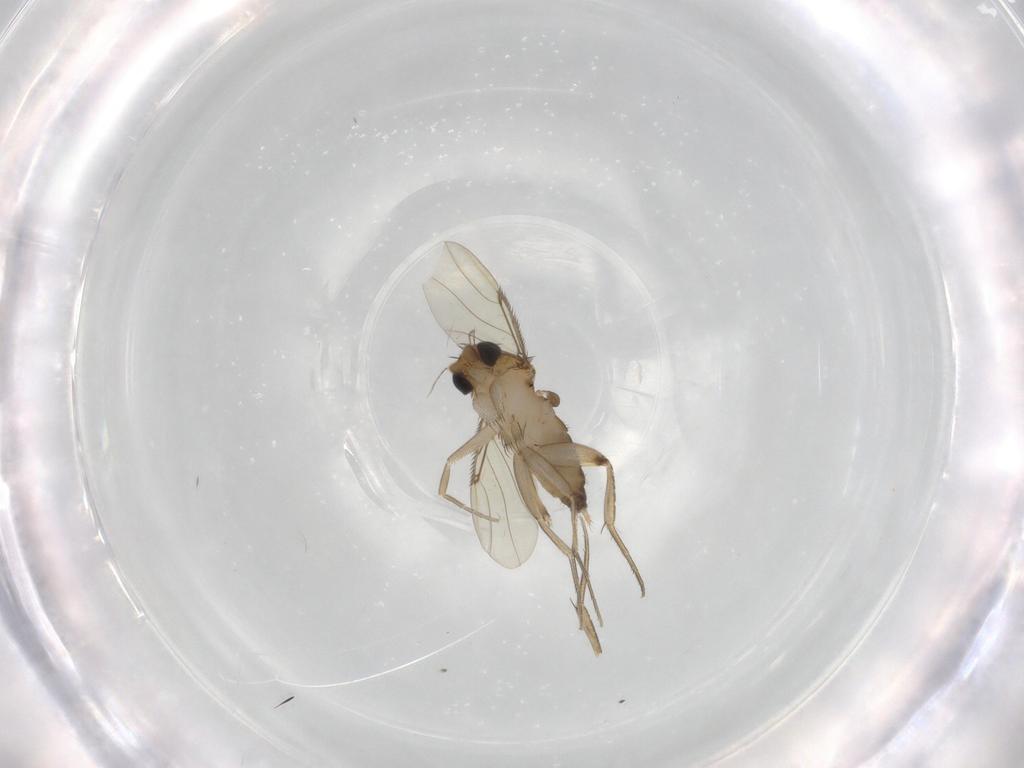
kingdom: Animalia
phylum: Arthropoda
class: Insecta
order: Diptera
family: Phoridae
